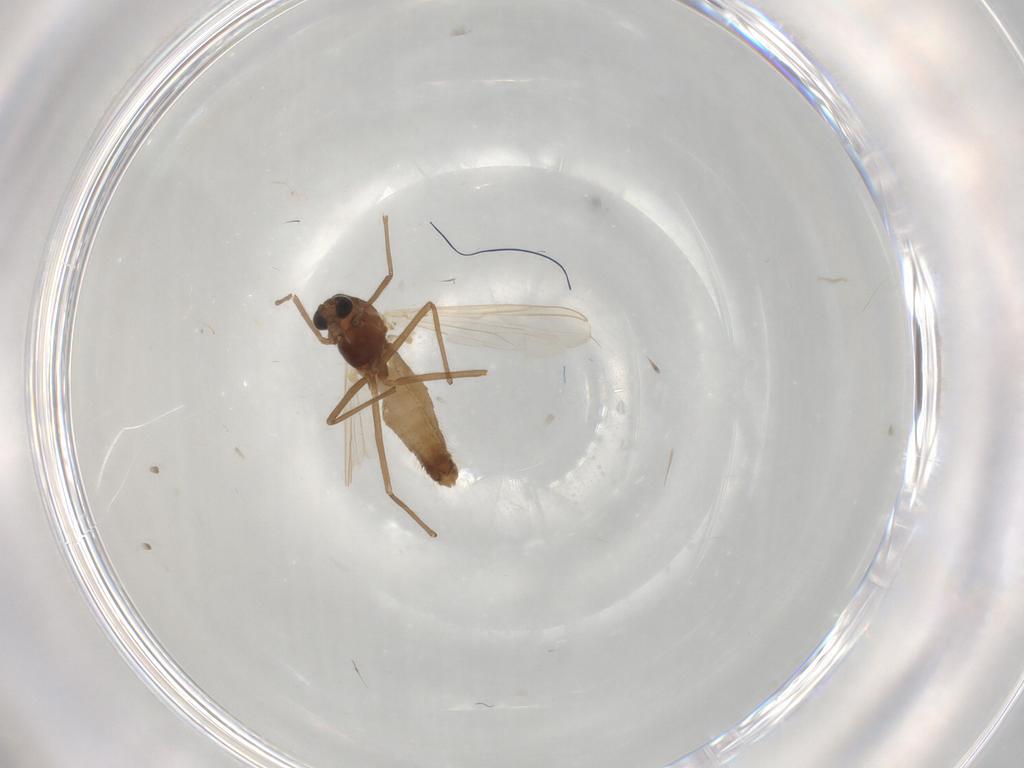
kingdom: Animalia
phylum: Arthropoda
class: Insecta
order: Diptera
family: Chironomidae
